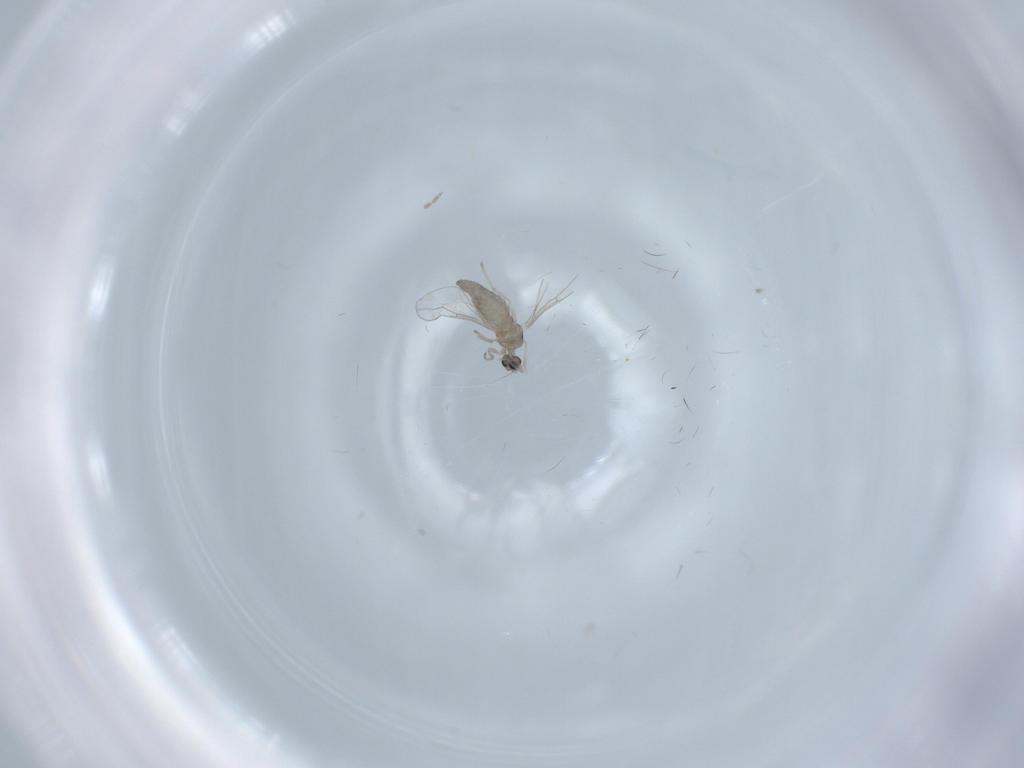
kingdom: Animalia
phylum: Arthropoda
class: Insecta
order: Diptera
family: Cecidomyiidae
